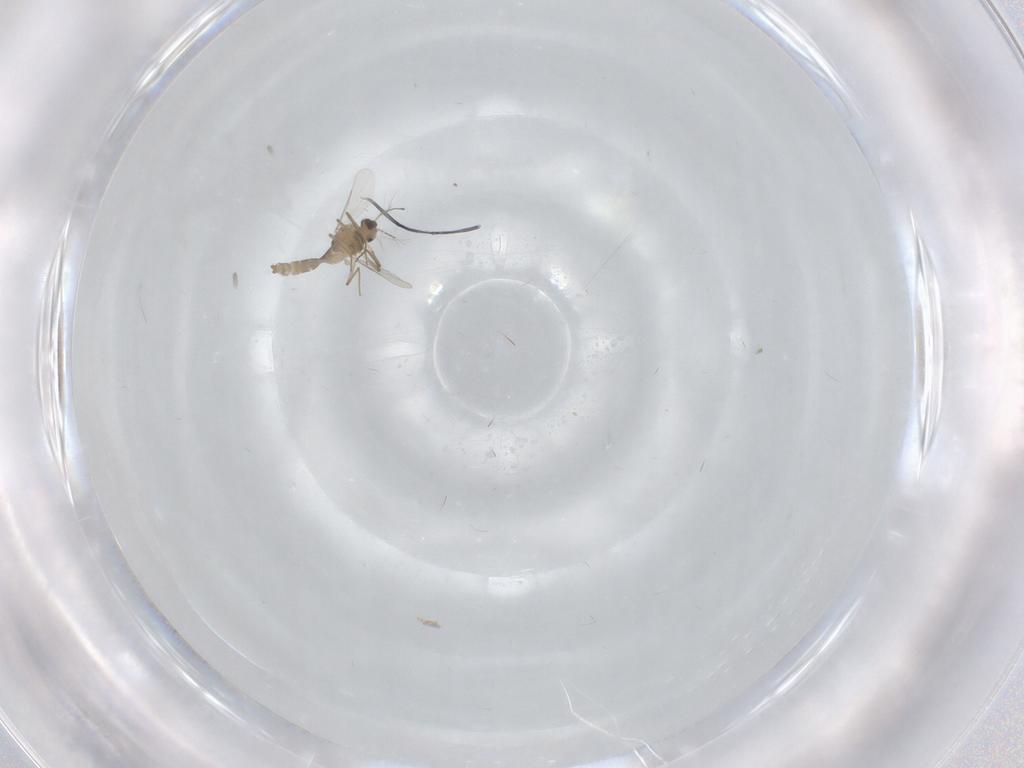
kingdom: Animalia
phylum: Arthropoda
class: Insecta
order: Diptera
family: Chironomidae
